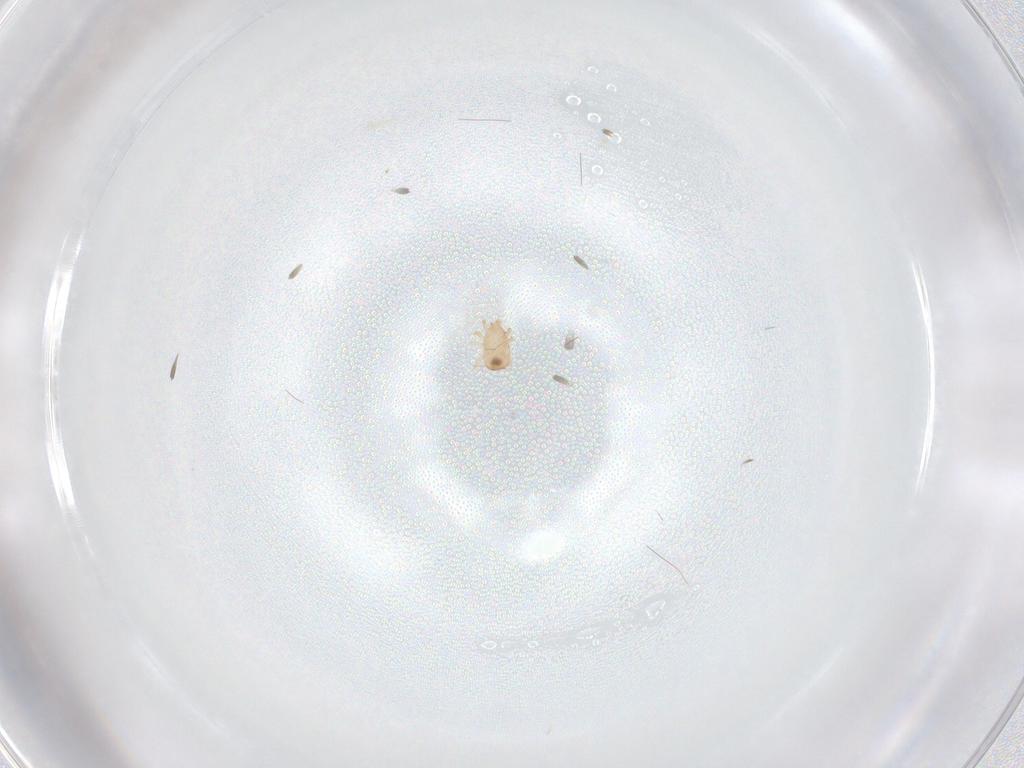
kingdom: Animalia
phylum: Arthropoda
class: Arachnida
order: Mesostigmata
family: Ascidae
